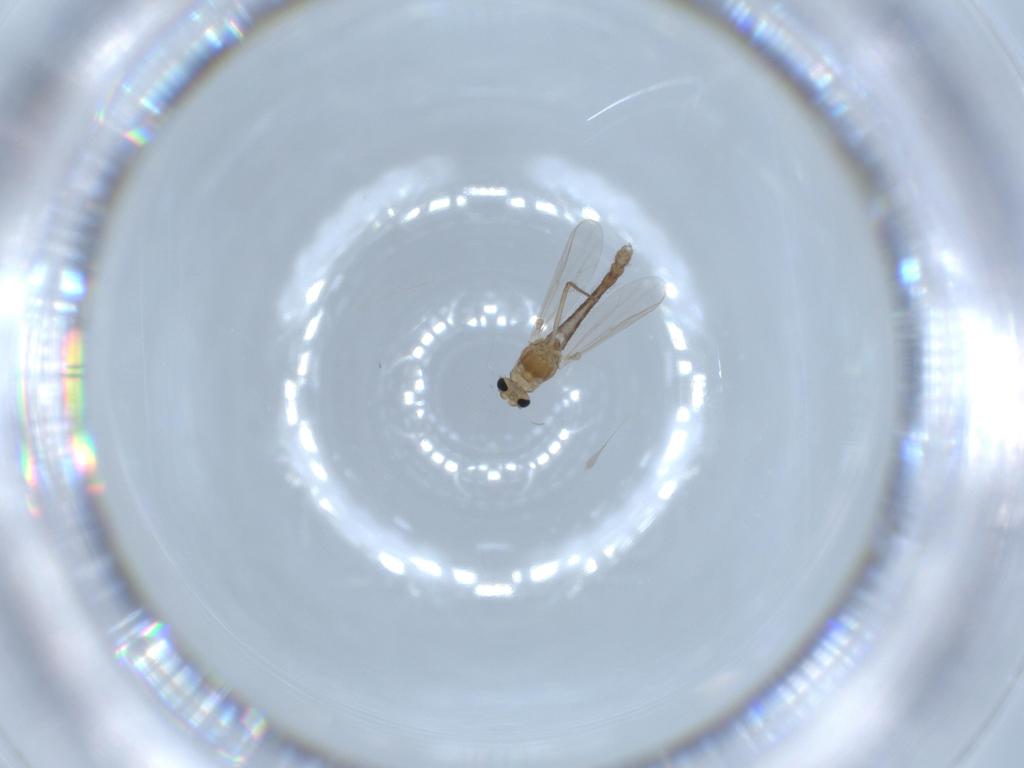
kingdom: Animalia
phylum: Arthropoda
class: Insecta
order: Diptera
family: Chironomidae
